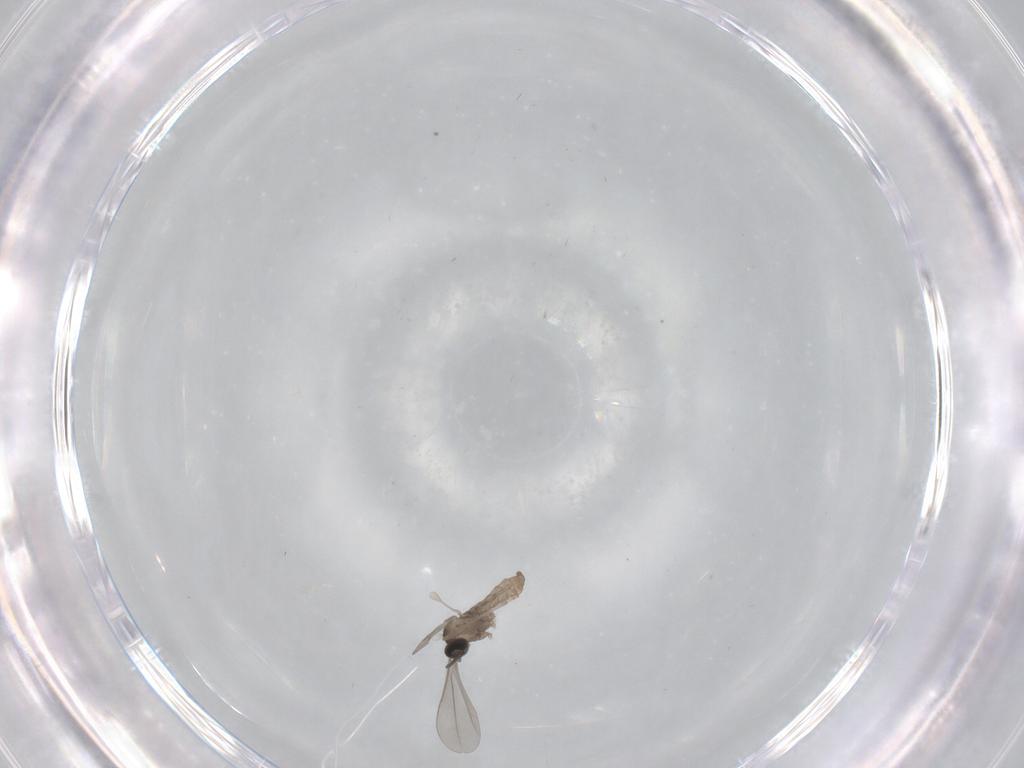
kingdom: Animalia
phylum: Arthropoda
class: Insecta
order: Diptera
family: Cecidomyiidae
